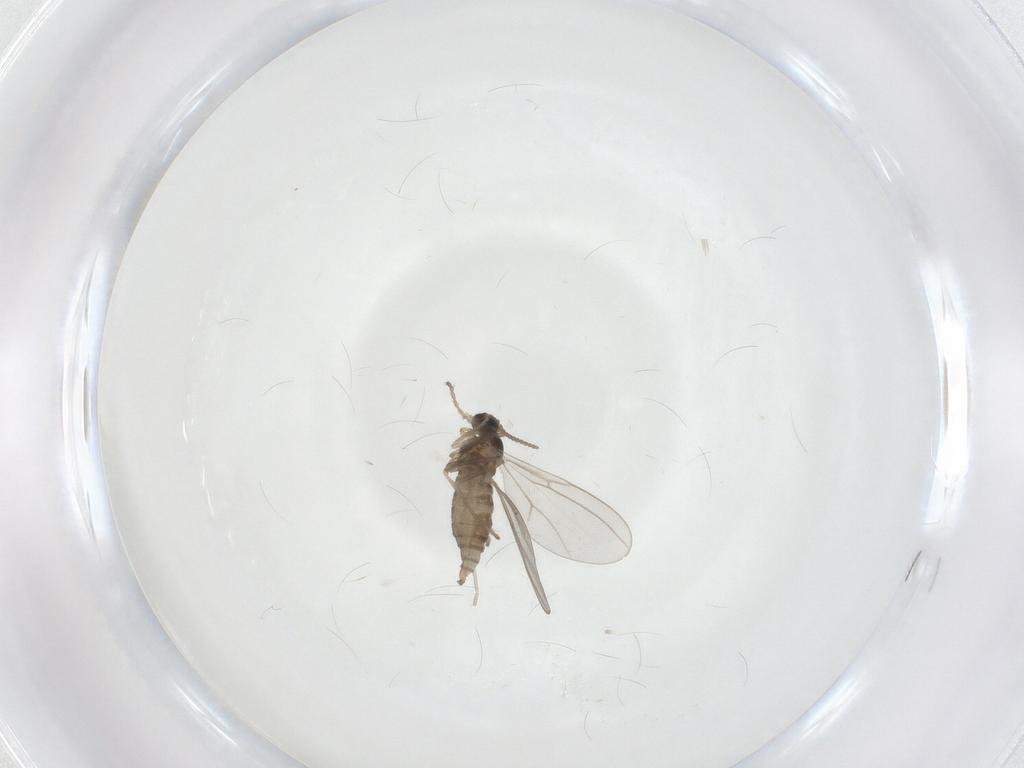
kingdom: Animalia
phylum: Arthropoda
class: Insecta
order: Diptera
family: Cecidomyiidae
